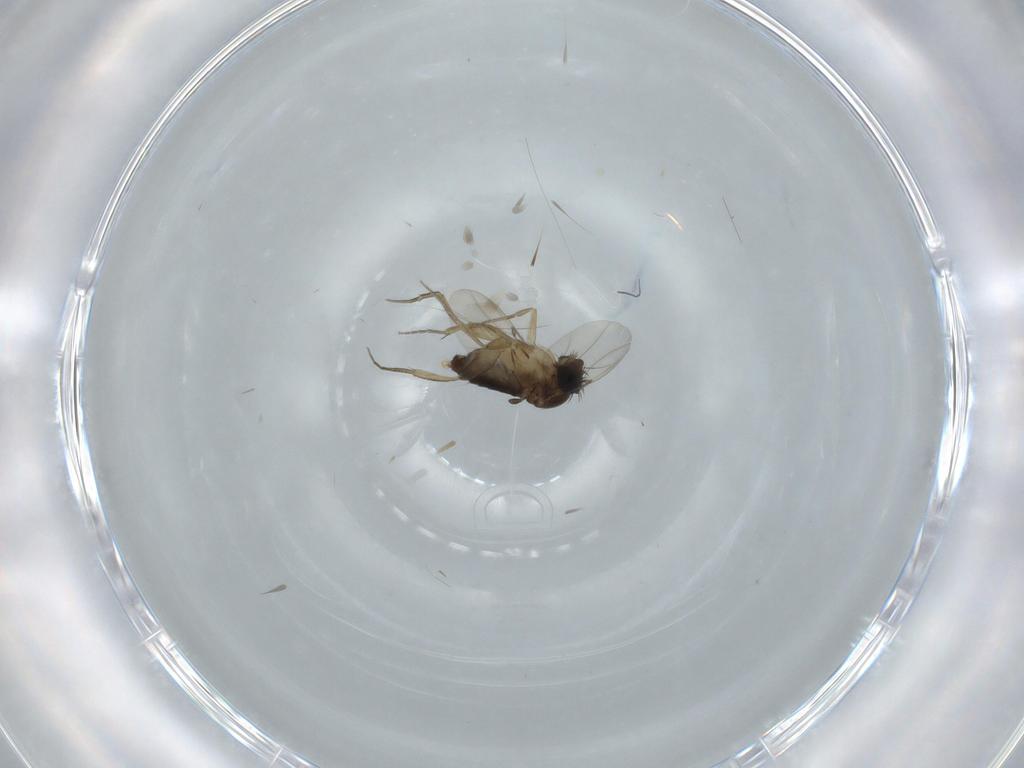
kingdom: Animalia
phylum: Arthropoda
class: Insecta
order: Diptera
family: Phoridae
